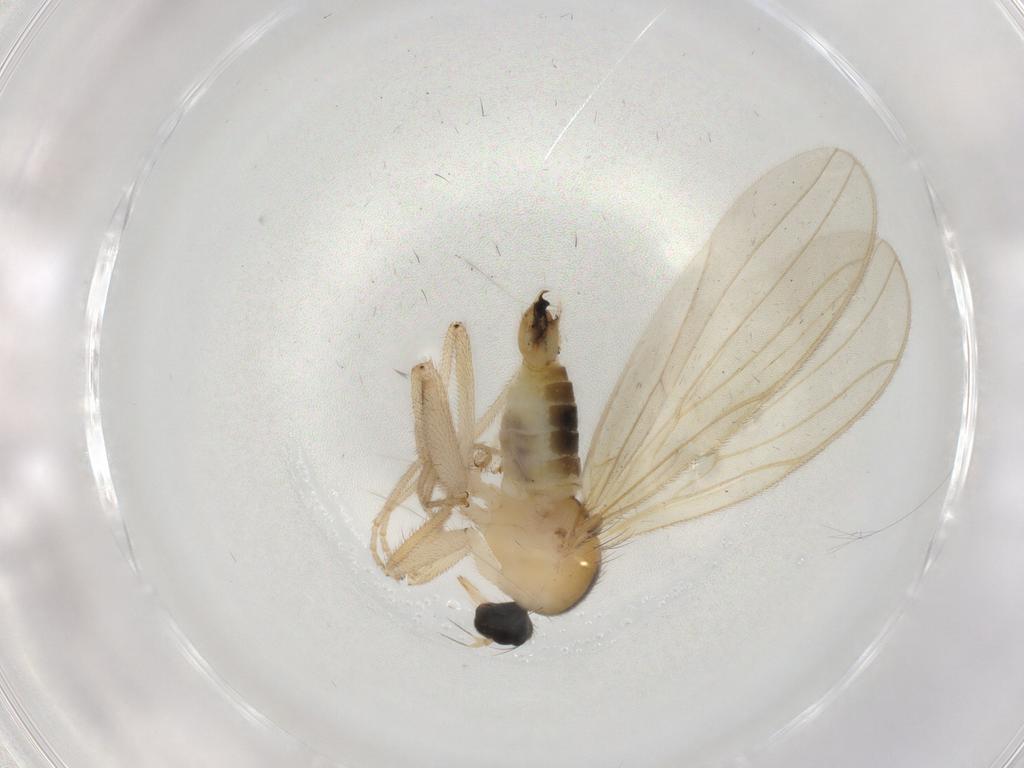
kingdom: Animalia
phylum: Arthropoda
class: Insecta
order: Diptera
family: Hybotidae
